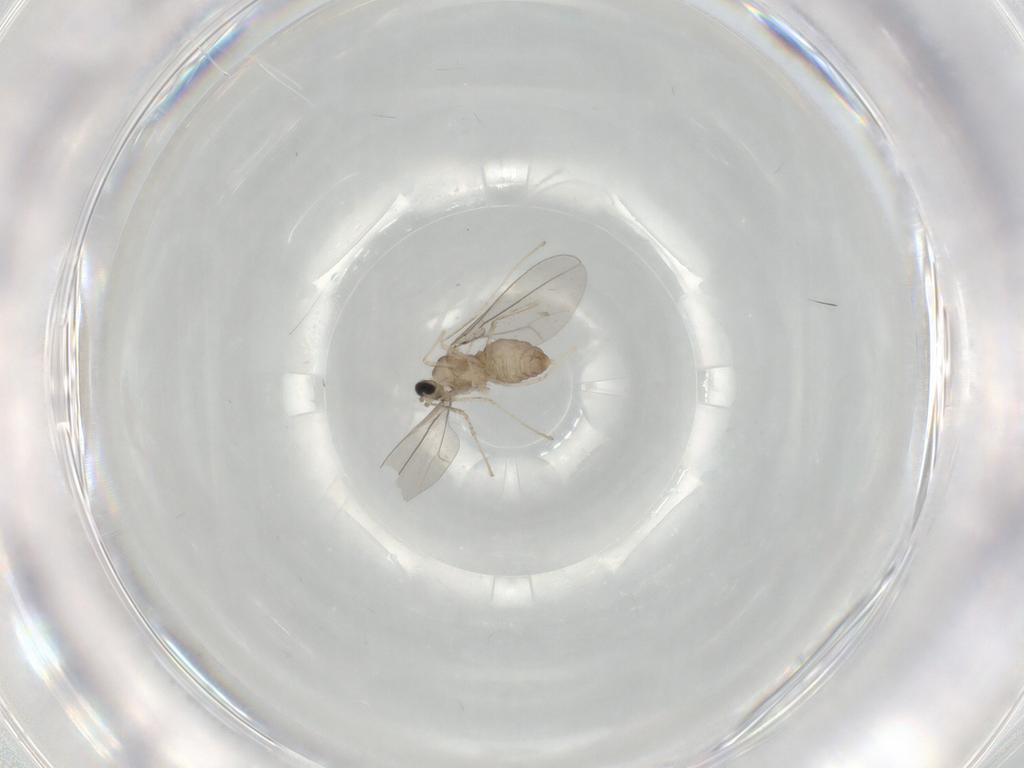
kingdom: Animalia
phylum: Arthropoda
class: Insecta
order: Diptera
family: Cecidomyiidae
